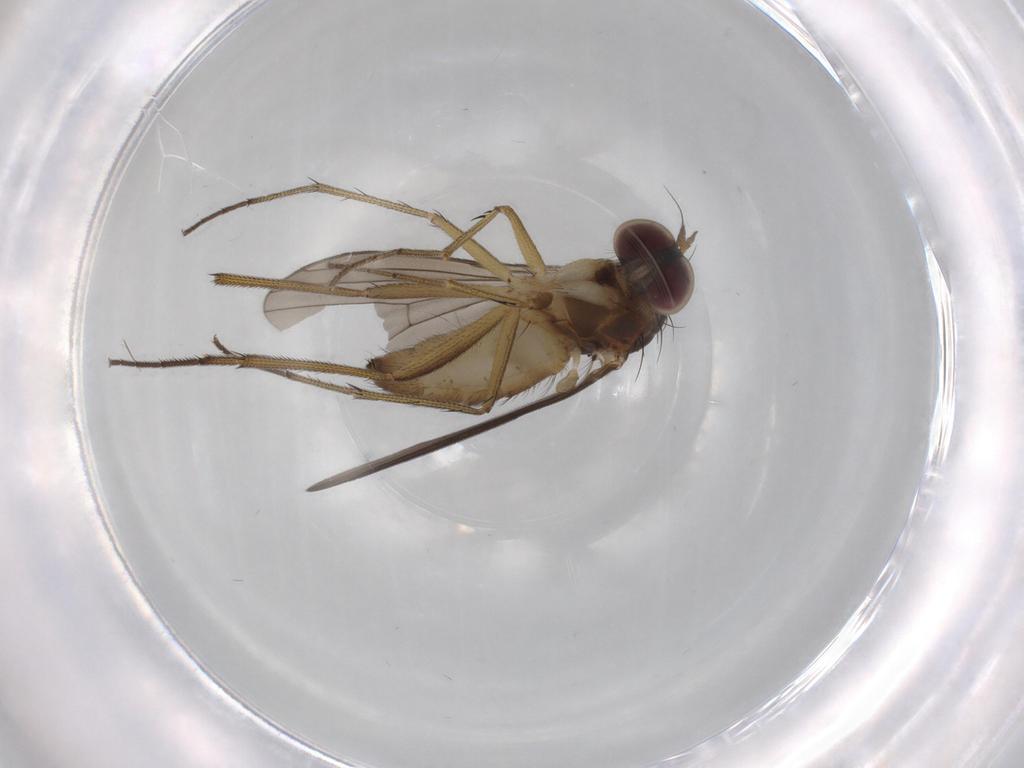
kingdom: Animalia
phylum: Arthropoda
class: Insecta
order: Diptera
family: Dolichopodidae
